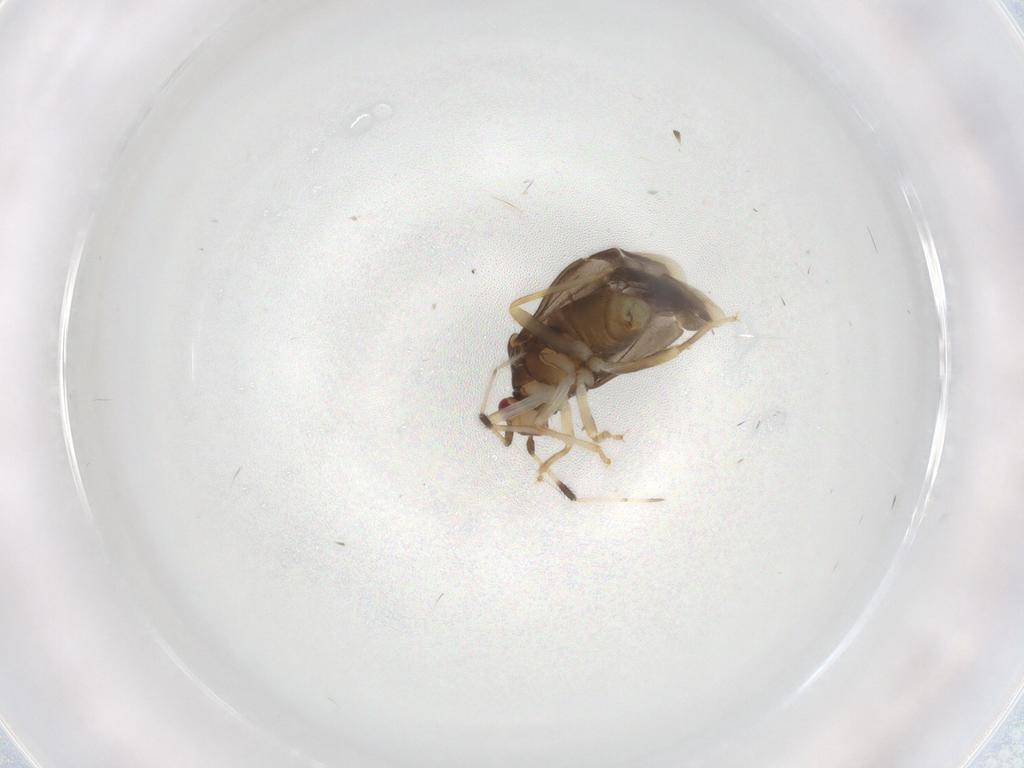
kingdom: Animalia
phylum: Arthropoda
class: Insecta
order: Hemiptera
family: Miridae
